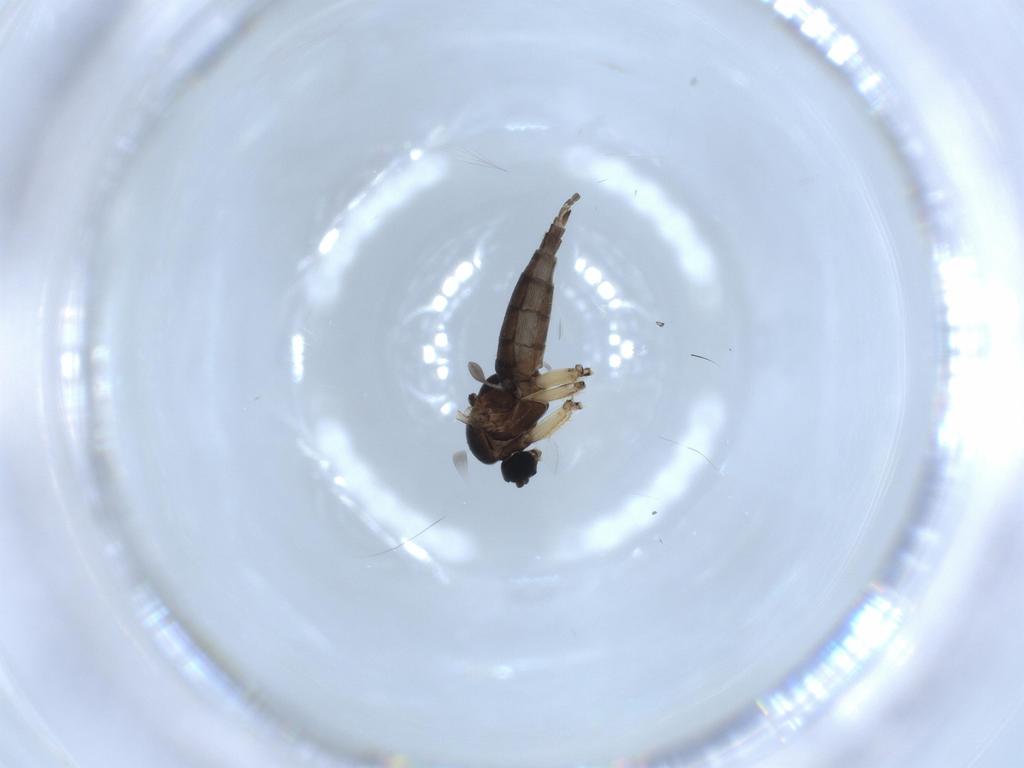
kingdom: Animalia
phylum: Arthropoda
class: Insecta
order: Diptera
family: Sciaridae
